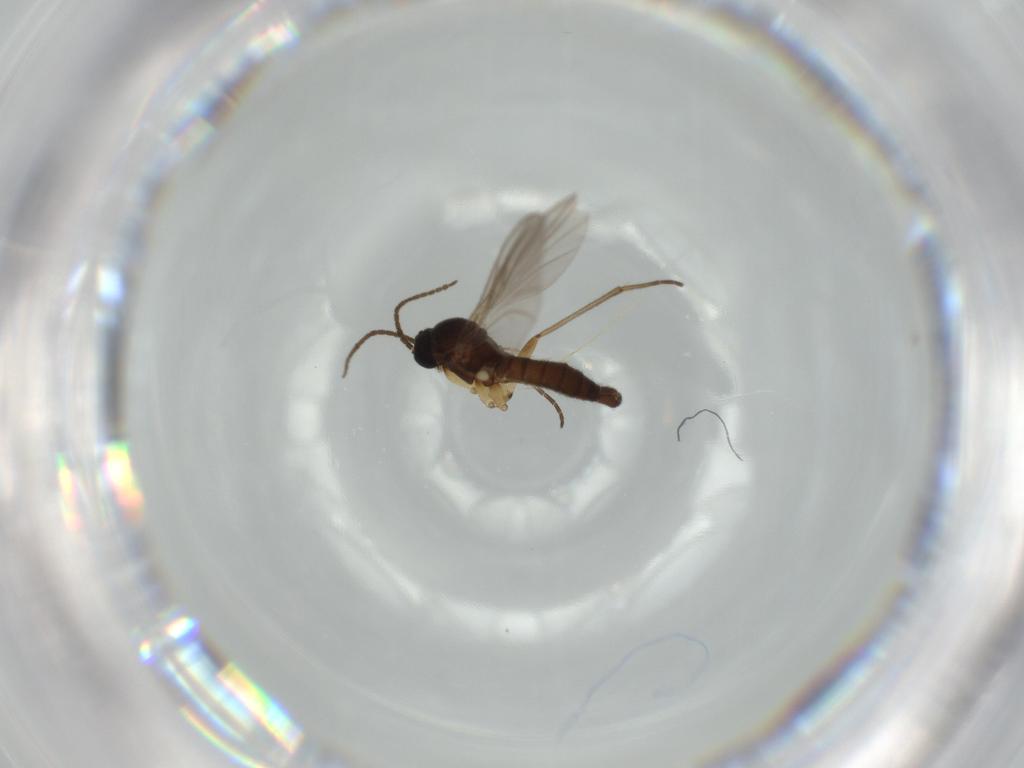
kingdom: Animalia
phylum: Arthropoda
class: Insecta
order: Diptera
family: Sciaridae
